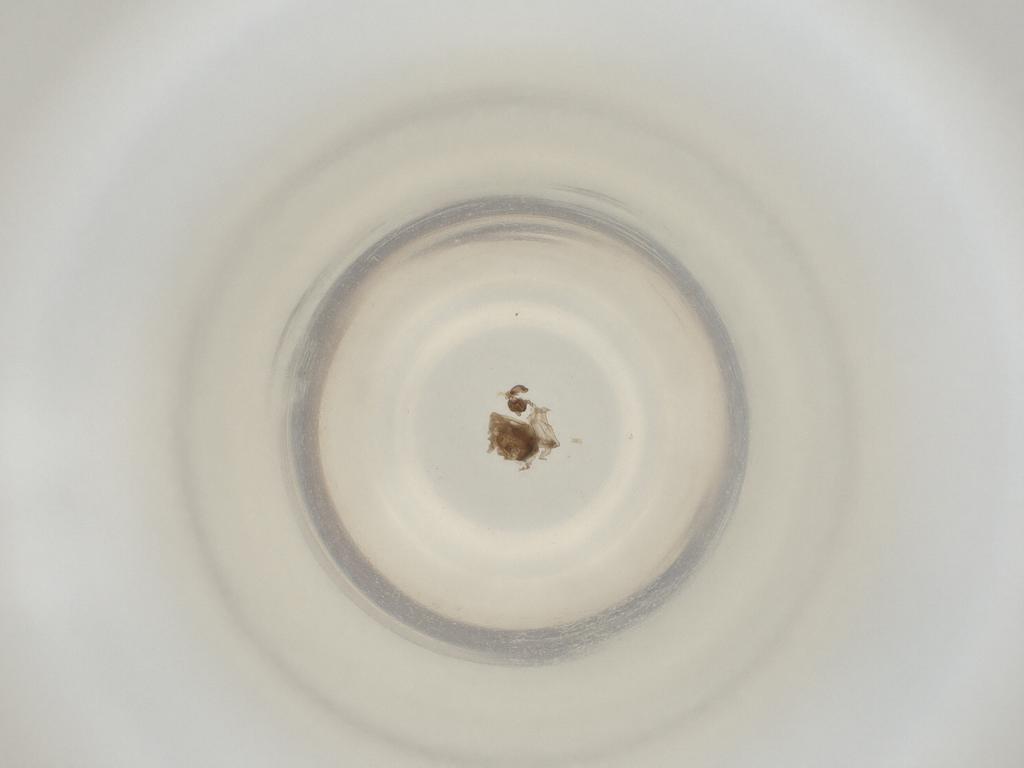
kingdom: Animalia
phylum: Arthropoda
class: Insecta
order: Diptera
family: Cecidomyiidae
